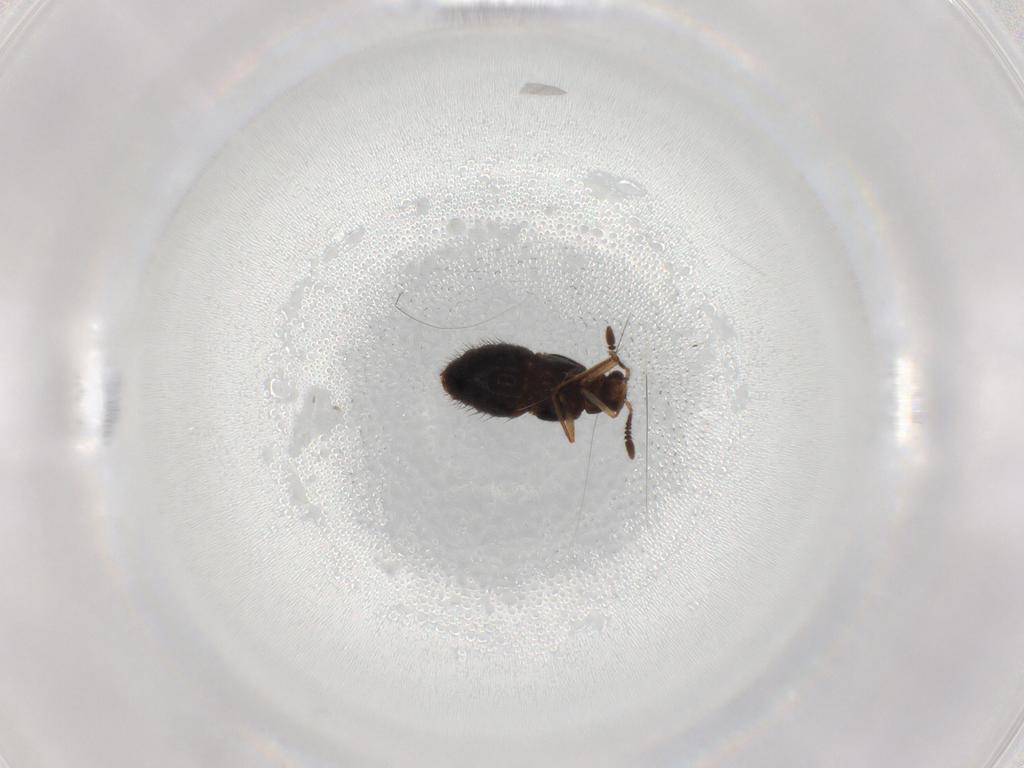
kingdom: Animalia
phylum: Arthropoda
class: Insecta
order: Coleoptera
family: Staphylinidae
